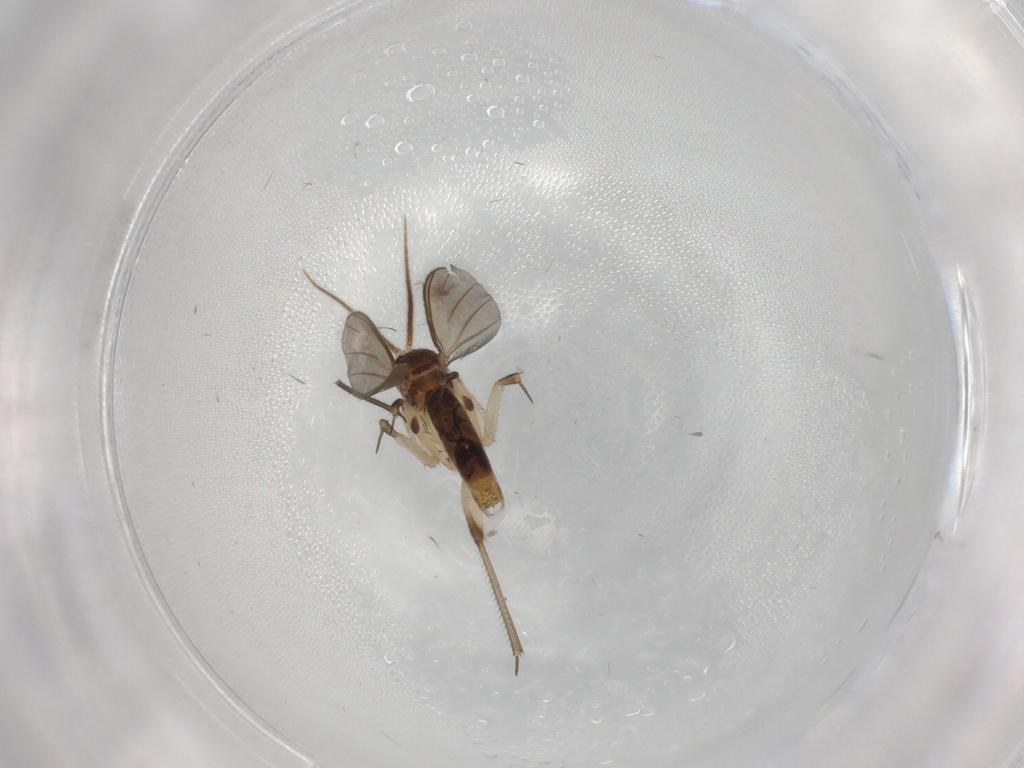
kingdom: Animalia
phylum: Arthropoda
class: Insecta
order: Diptera
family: Mycetophilidae
